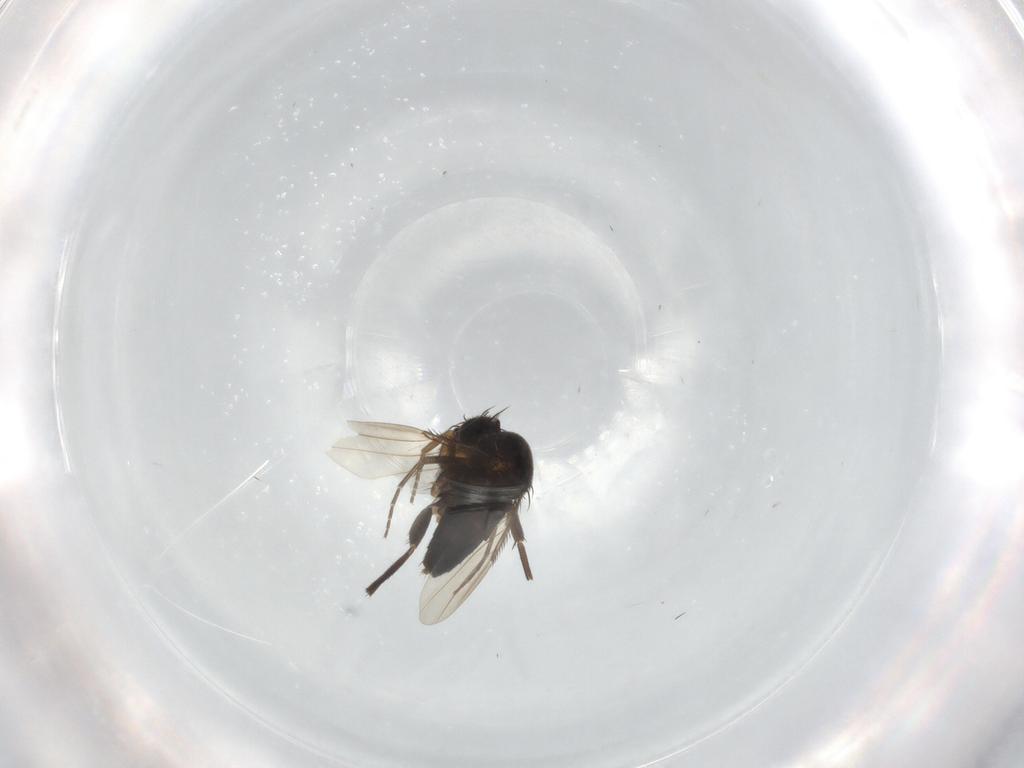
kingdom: Animalia
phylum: Arthropoda
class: Insecta
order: Diptera
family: Phoridae
